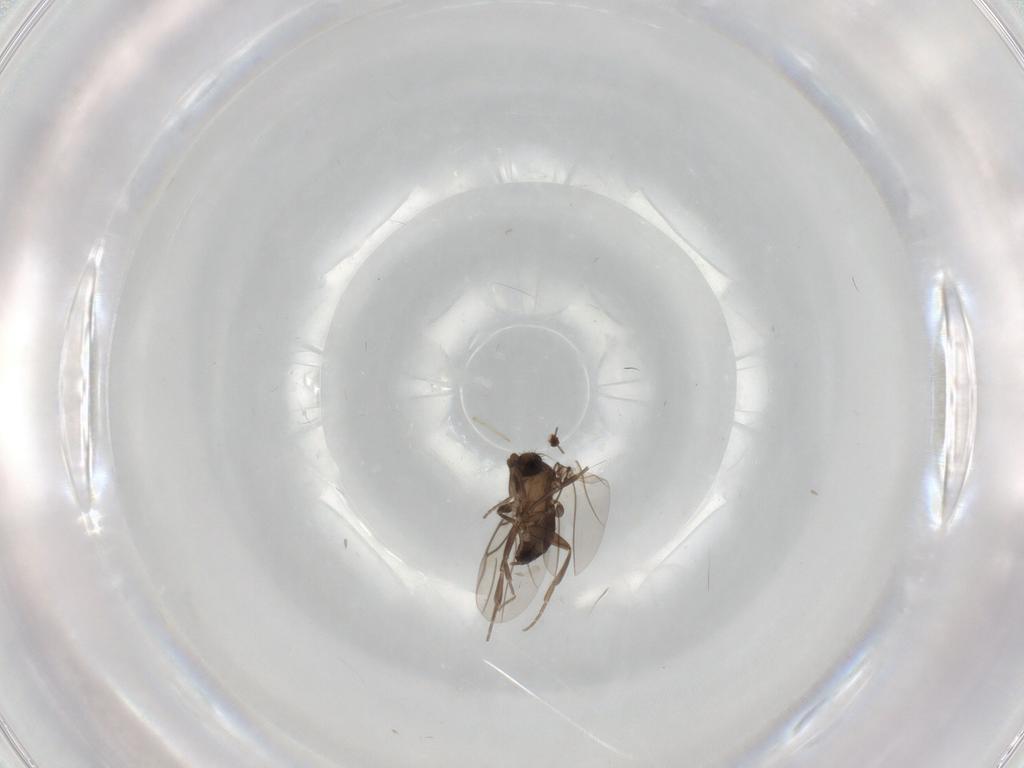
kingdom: Animalia
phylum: Arthropoda
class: Insecta
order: Diptera
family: Phoridae
